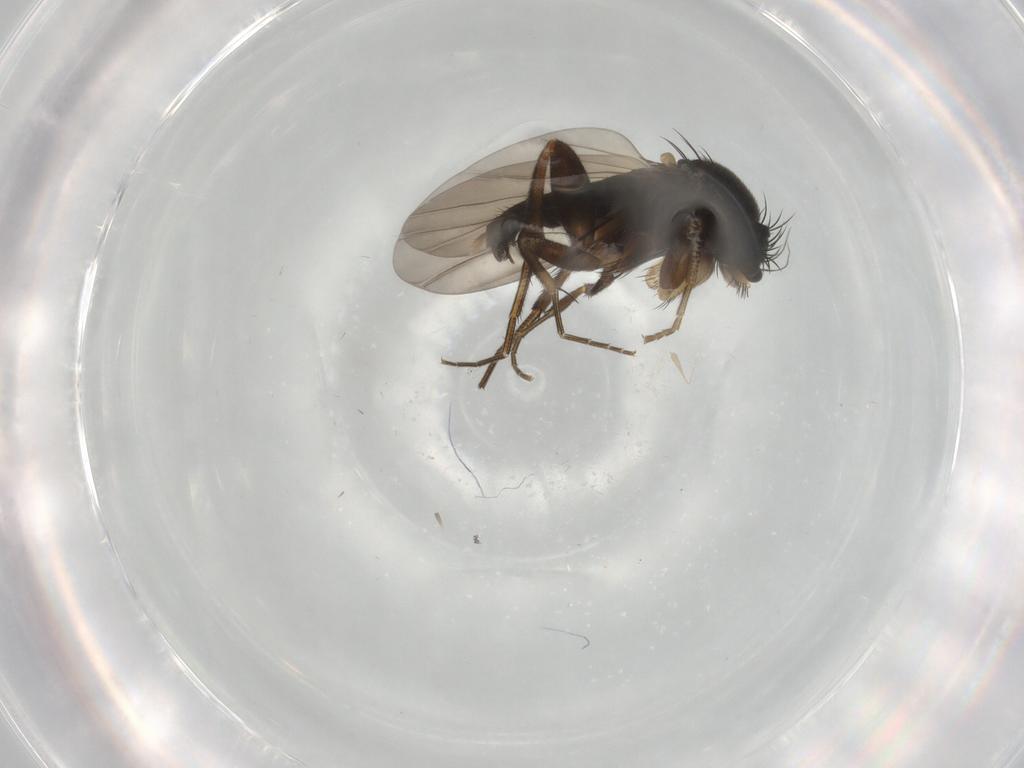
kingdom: Animalia
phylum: Arthropoda
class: Insecta
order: Diptera
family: Phoridae
